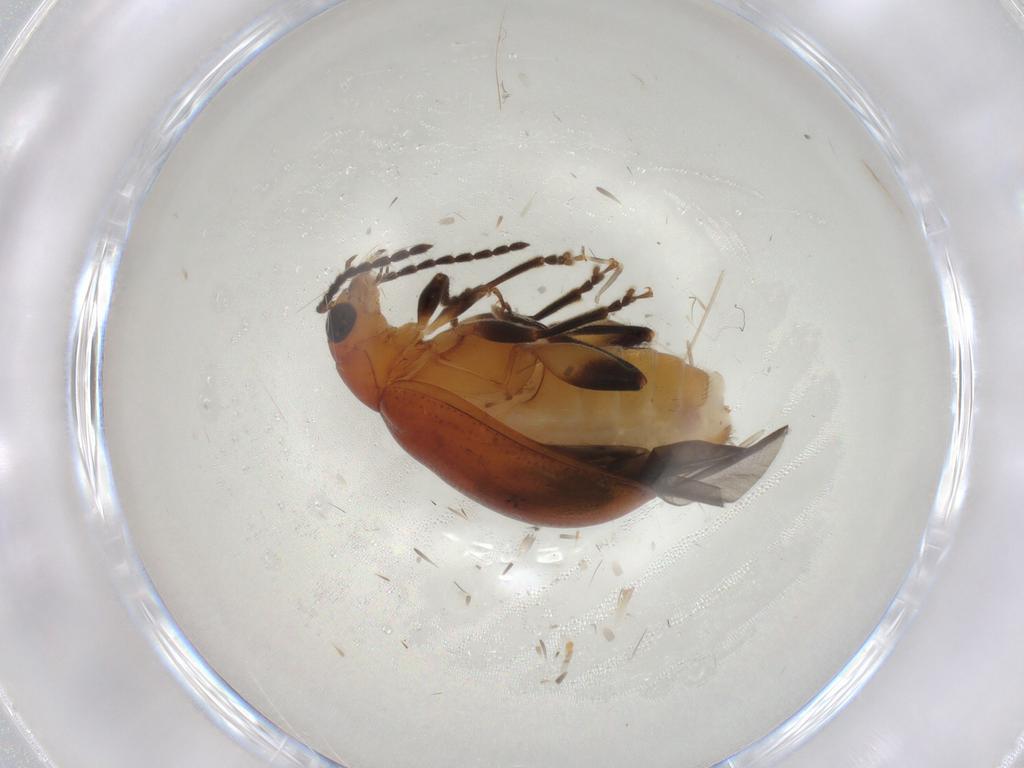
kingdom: Animalia
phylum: Arthropoda
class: Insecta
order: Coleoptera
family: Chrysomelidae
